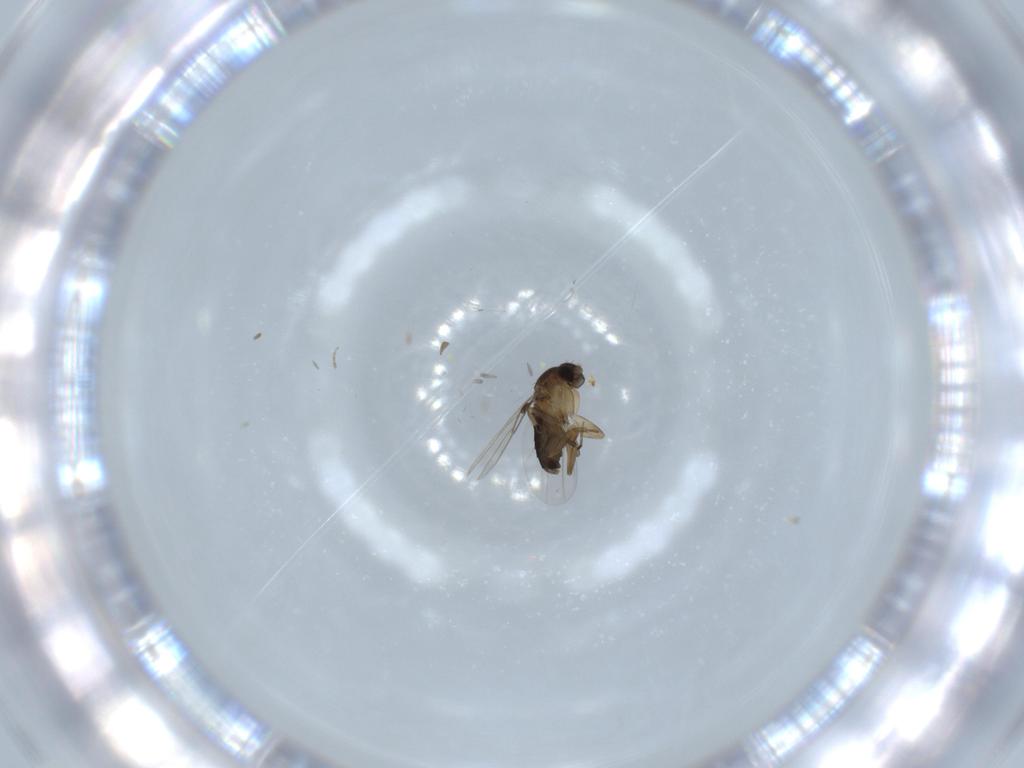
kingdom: Animalia
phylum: Arthropoda
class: Insecta
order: Diptera
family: Phoridae
